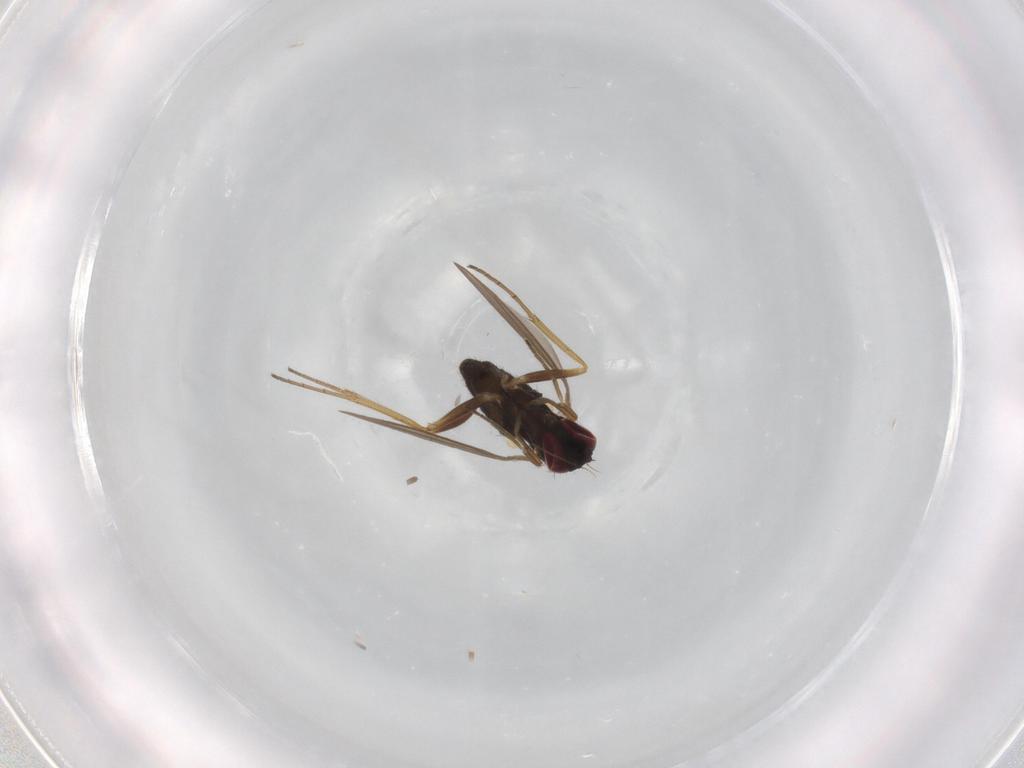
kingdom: Animalia
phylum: Arthropoda
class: Insecta
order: Diptera
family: Dolichopodidae
